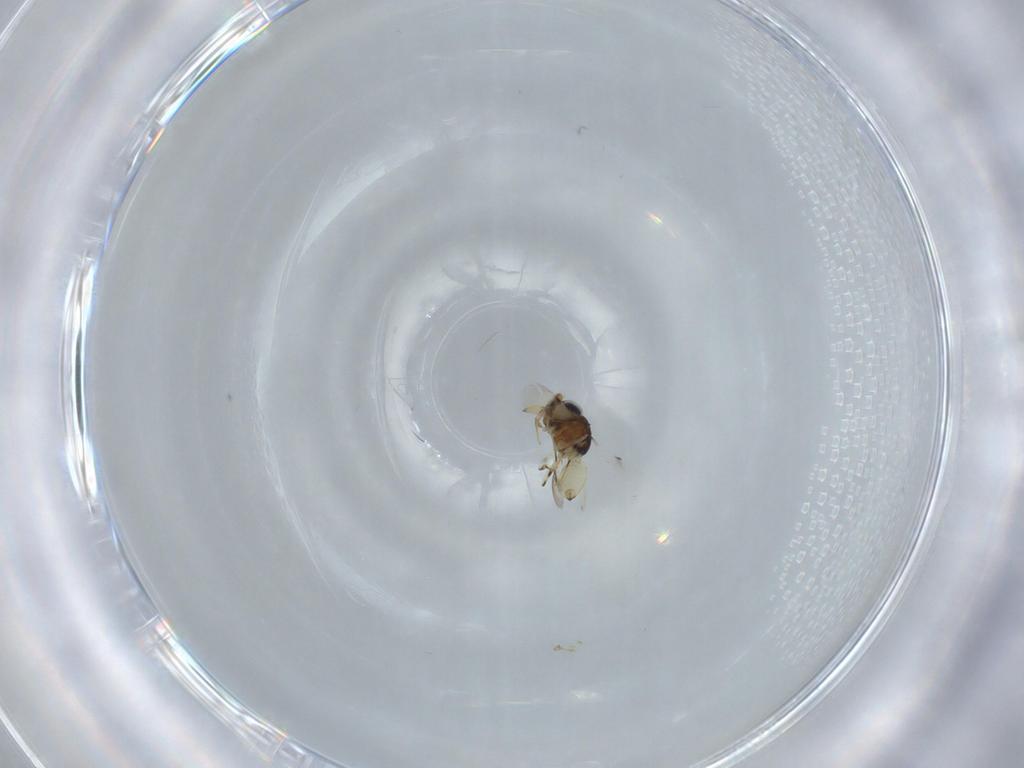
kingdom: Animalia
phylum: Arthropoda
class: Insecta
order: Hymenoptera
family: Scelionidae
